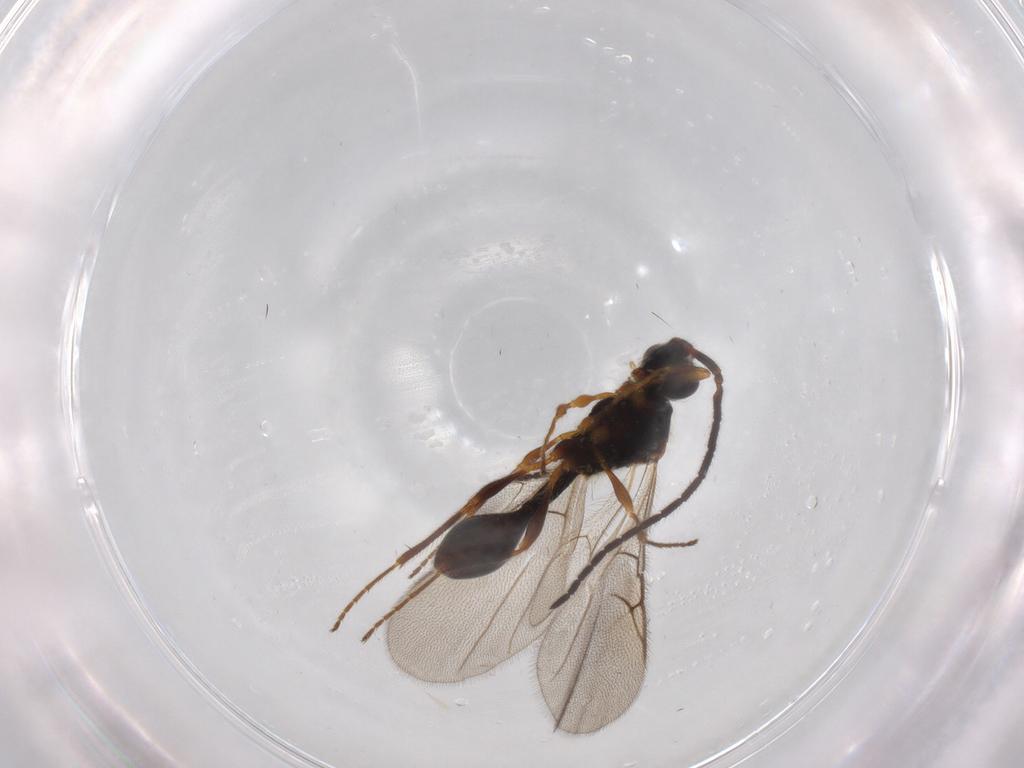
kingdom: Animalia
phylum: Arthropoda
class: Insecta
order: Hymenoptera
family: Diapriidae
